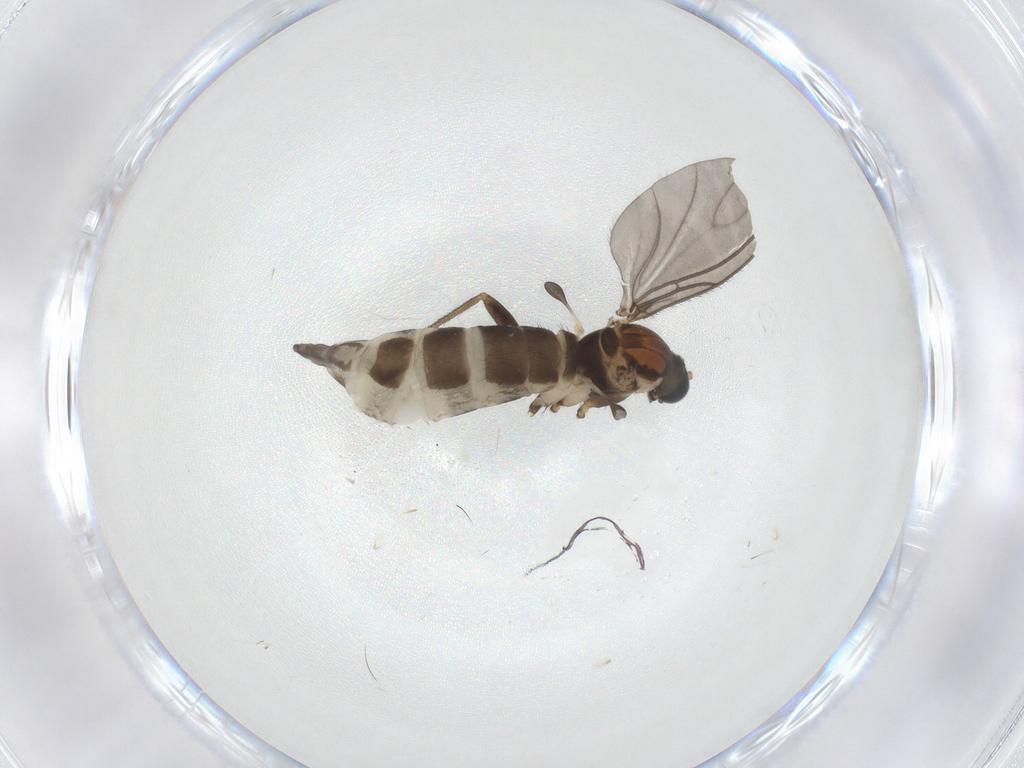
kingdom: Animalia
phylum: Arthropoda
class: Insecta
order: Diptera
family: Sciaridae
